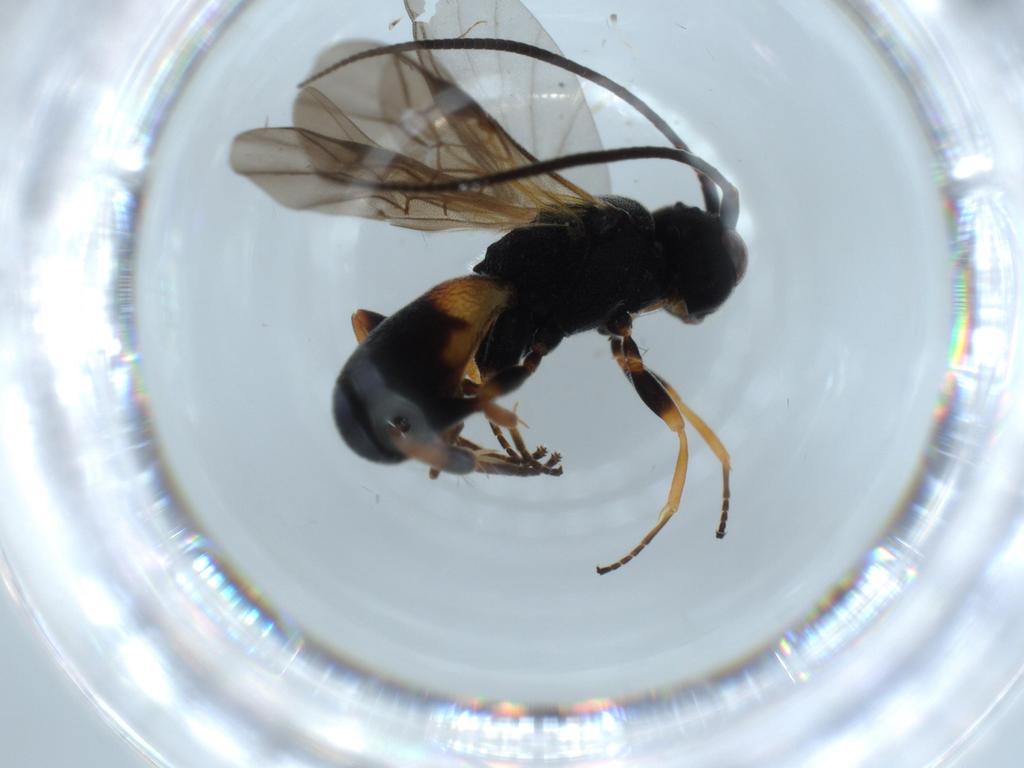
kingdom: Animalia
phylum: Arthropoda
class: Insecta
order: Hymenoptera
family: Braconidae
